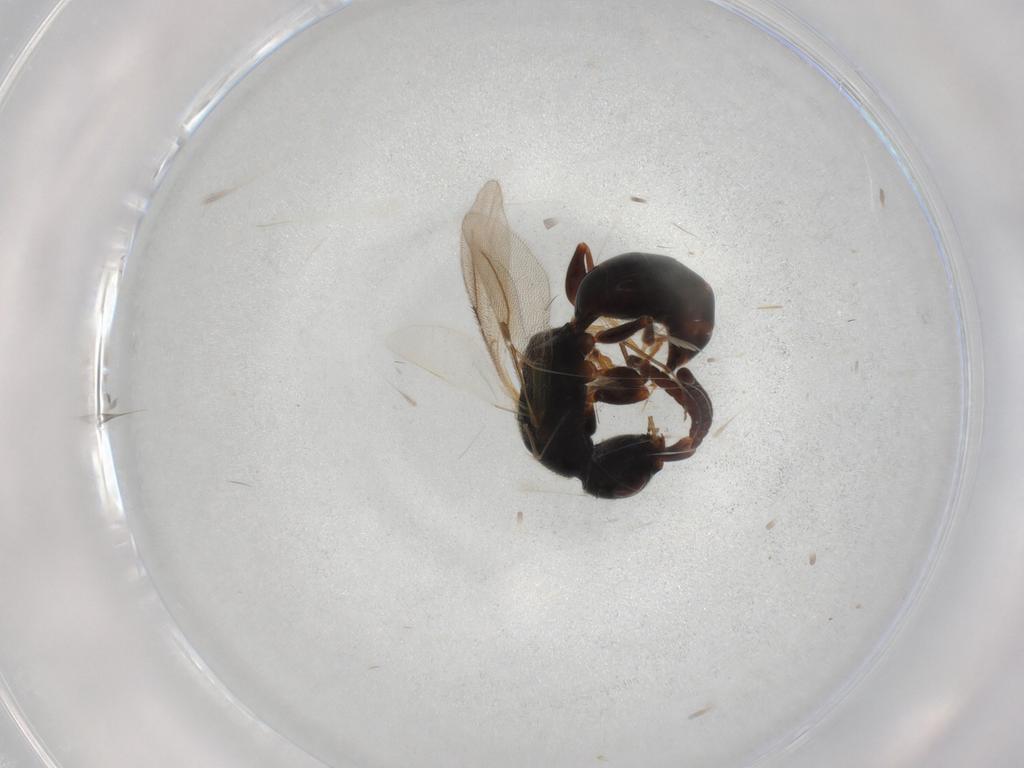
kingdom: Animalia
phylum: Arthropoda
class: Insecta
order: Hymenoptera
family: Bethylidae
